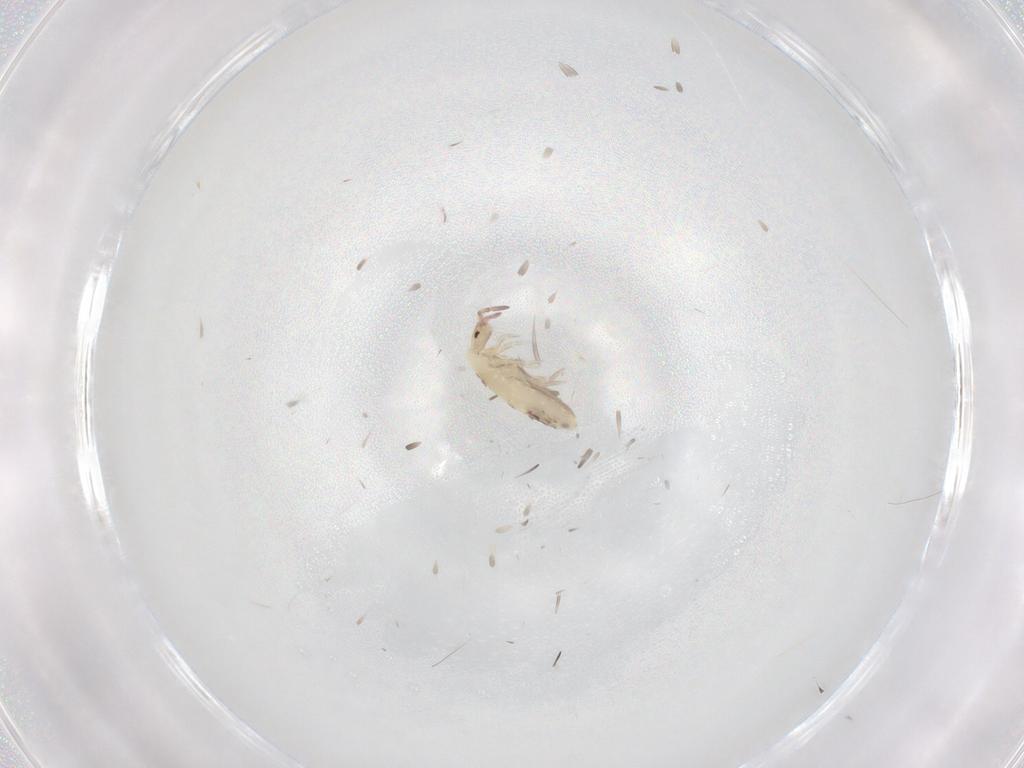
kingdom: Animalia
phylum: Arthropoda
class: Collembola
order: Entomobryomorpha
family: Entomobryidae
